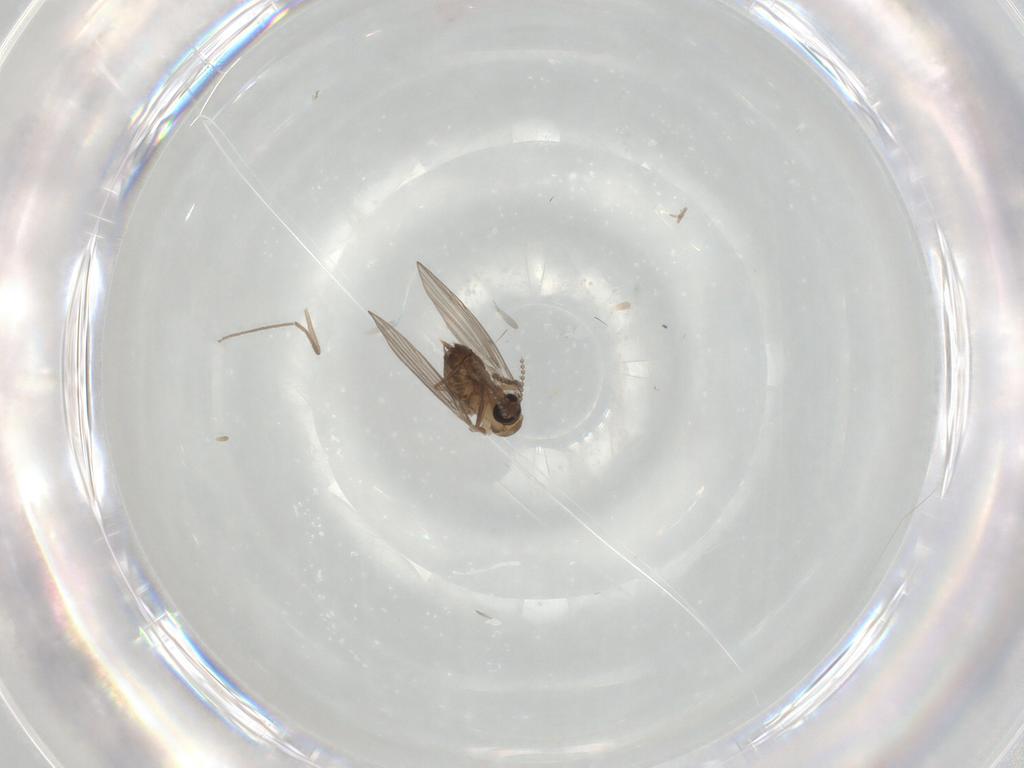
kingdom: Animalia
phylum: Arthropoda
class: Insecta
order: Diptera
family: Psychodidae
